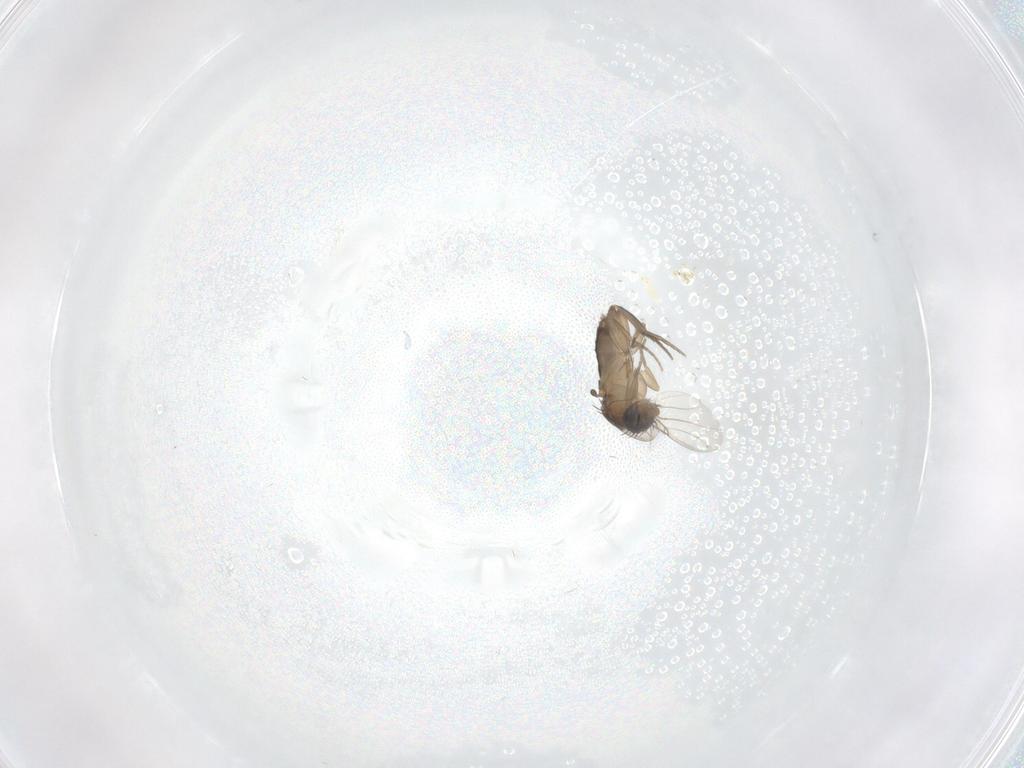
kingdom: Animalia
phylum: Arthropoda
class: Insecta
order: Diptera
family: Phoridae
